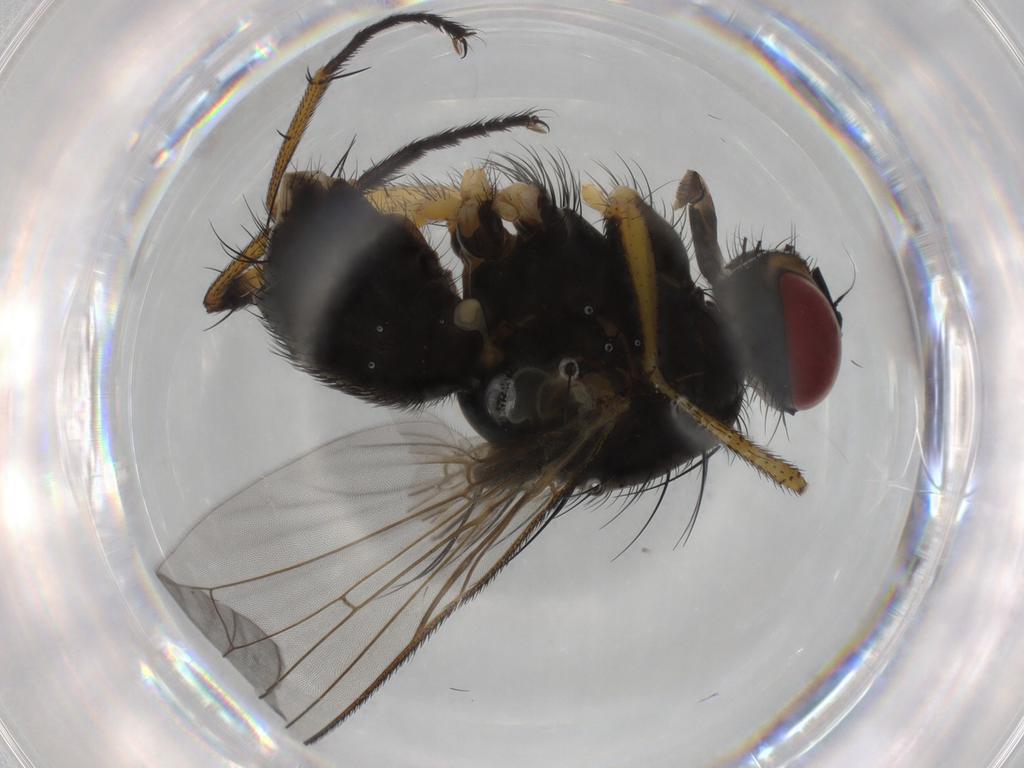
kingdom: Animalia
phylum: Arthropoda
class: Insecta
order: Diptera
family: Muscidae
